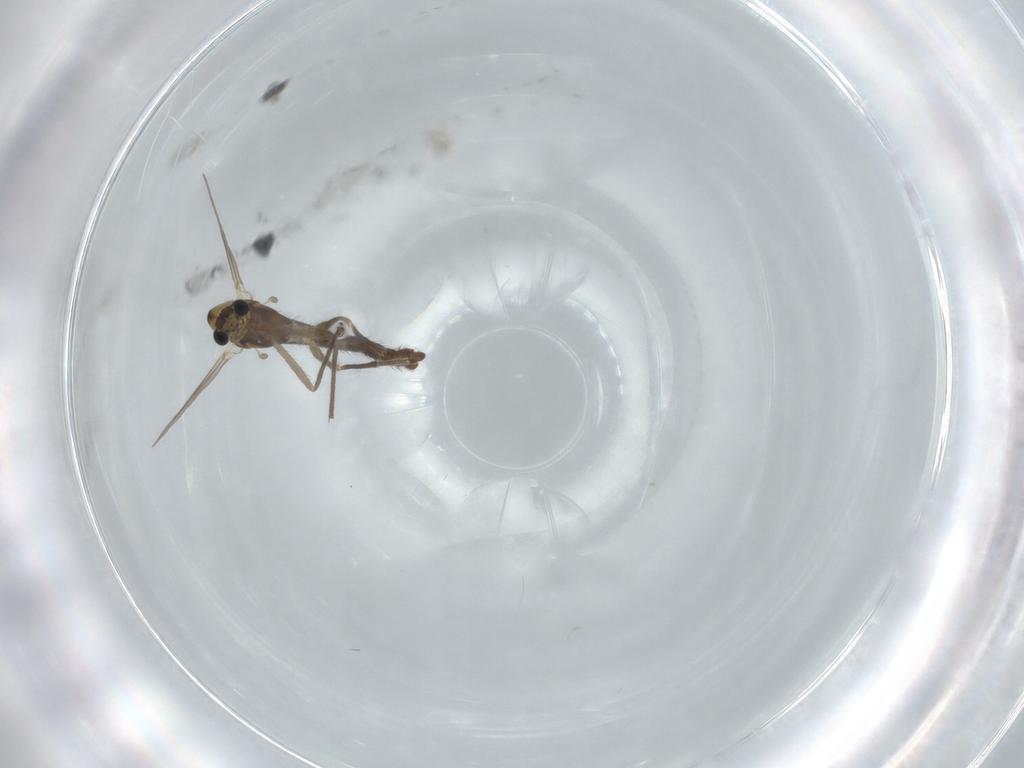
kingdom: Animalia
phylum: Arthropoda
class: Insecta
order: Diptera
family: Chironomidae
